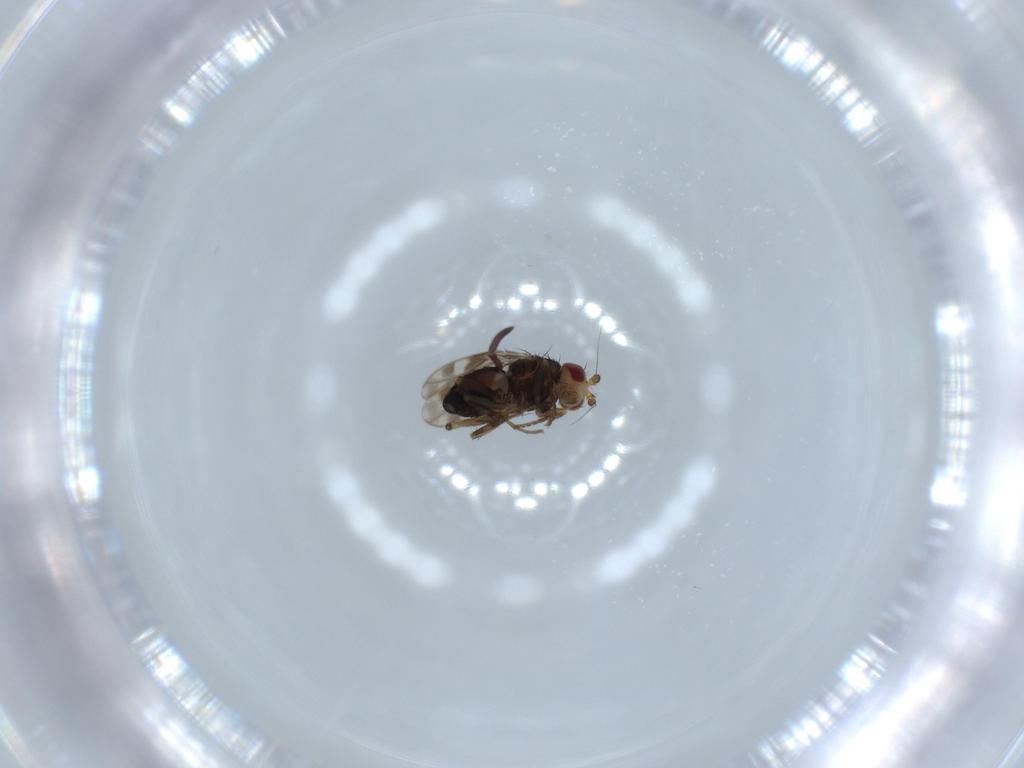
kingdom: Animalia
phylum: Arthropoda
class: Insecta
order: Diptera
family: Sphaeroceridae
